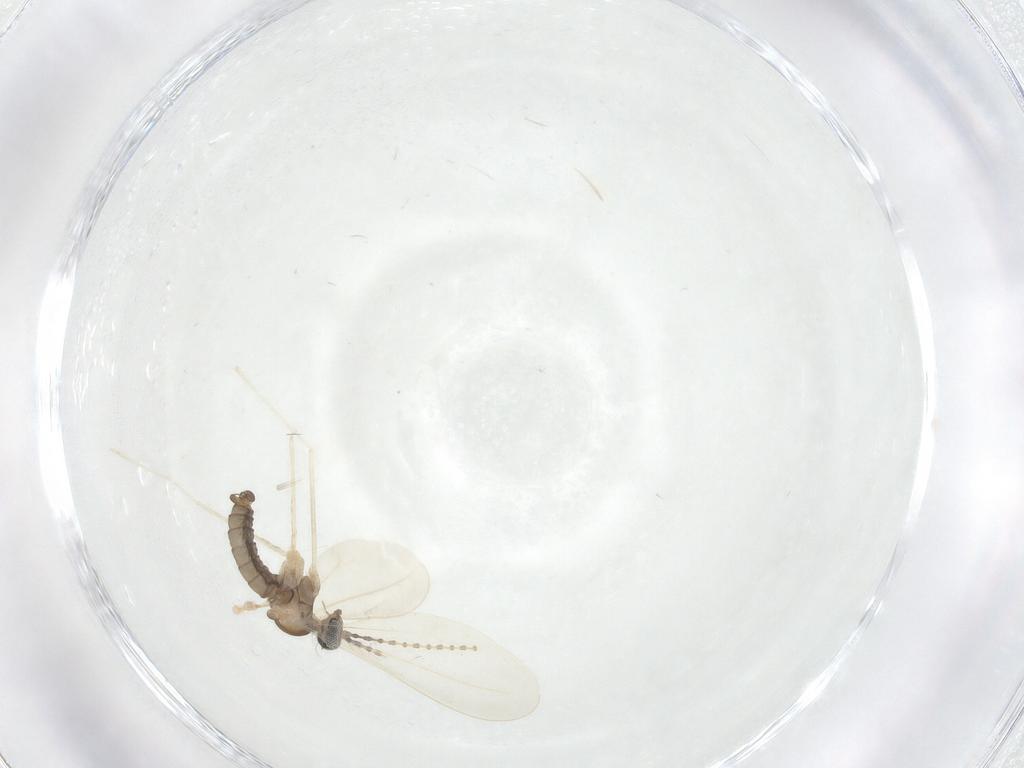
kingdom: Animalia
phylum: Arthropoda
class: Insecta
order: Diptera
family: Cecidomyiidae
